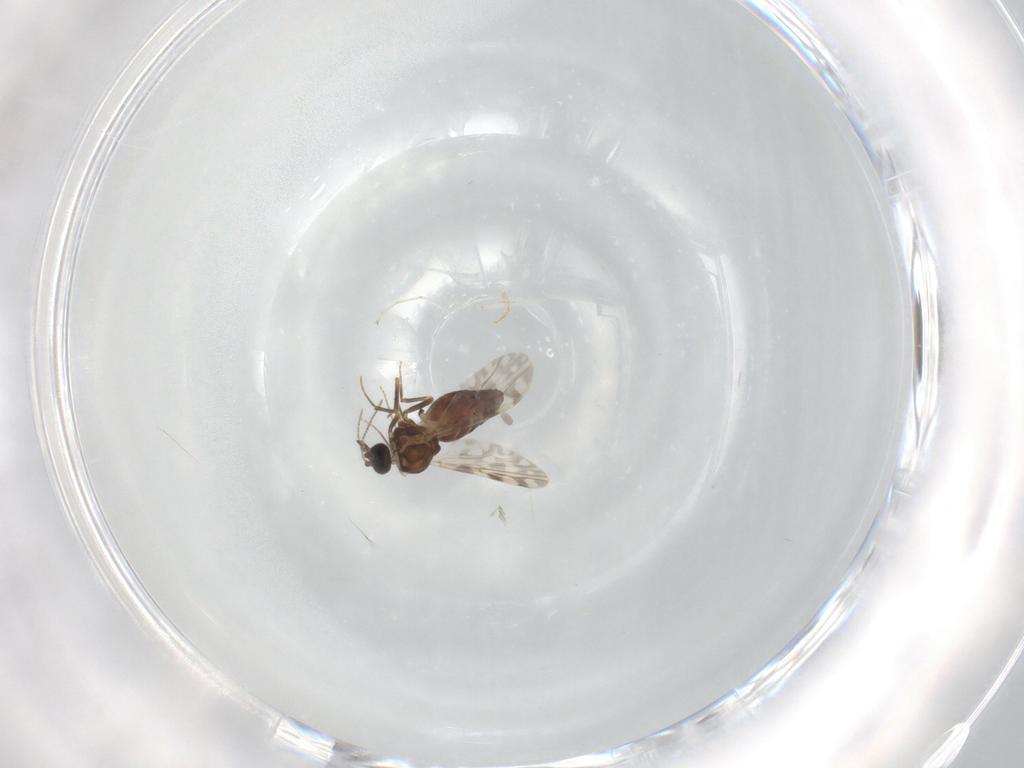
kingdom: Animalia
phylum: Arthropoda
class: Insecta
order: Diptera
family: Ceratopogonidae
